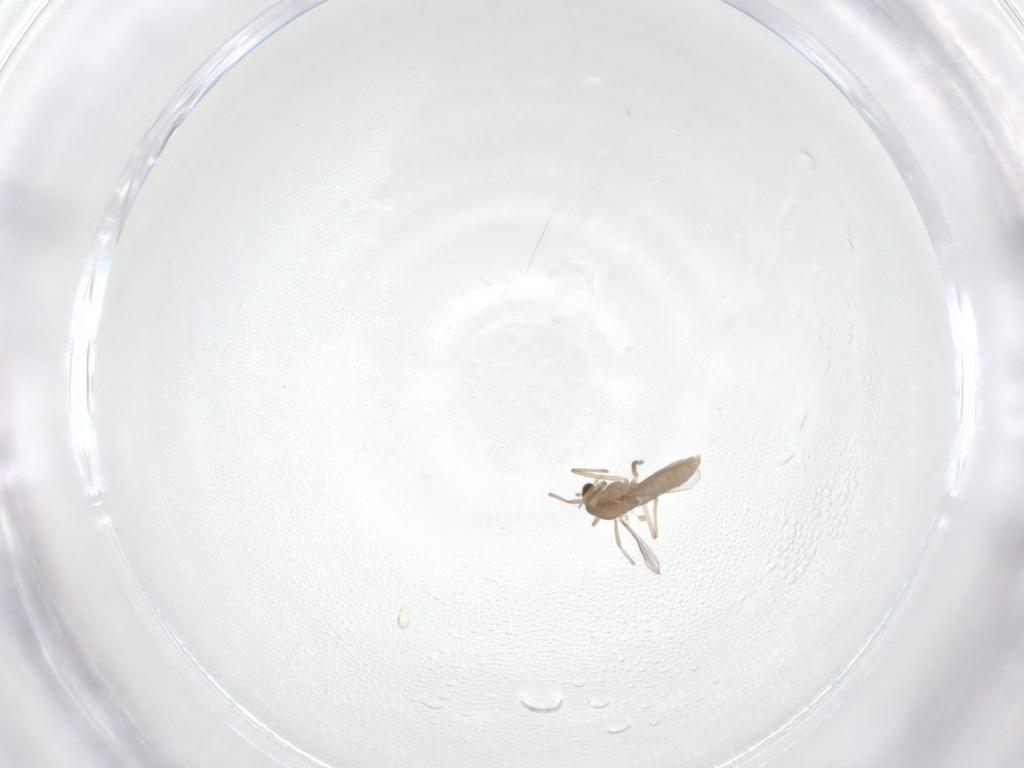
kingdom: Animalia
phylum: Arthropoda
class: Insecta
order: Diptera
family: Chironomidae
